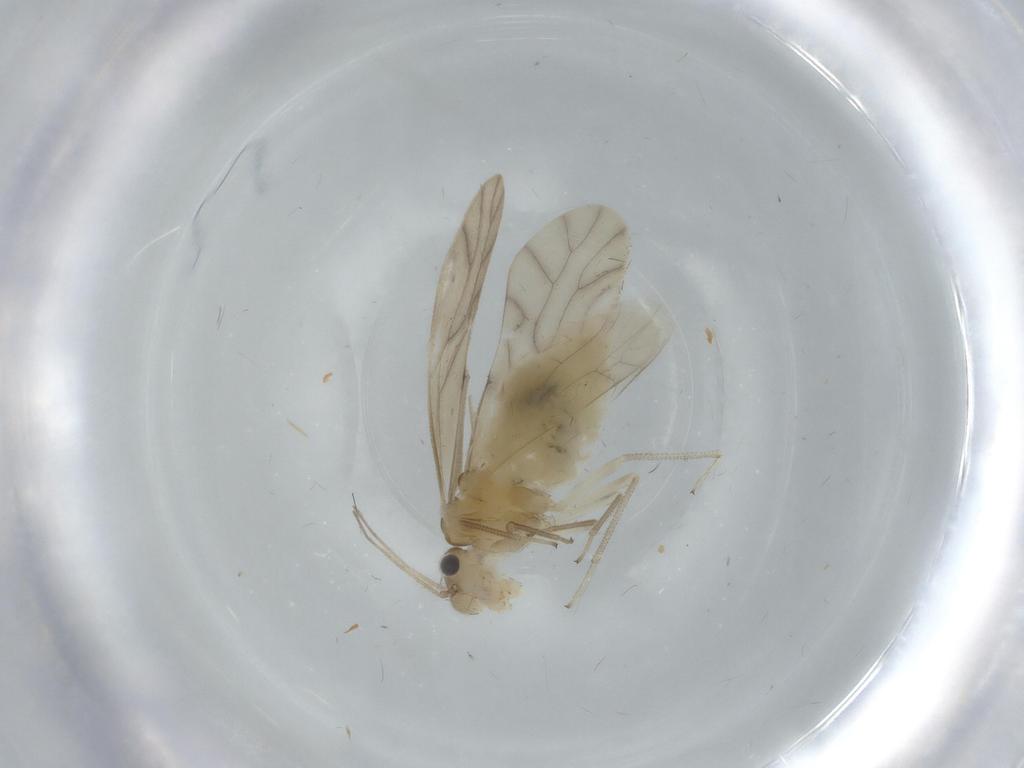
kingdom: Animalia
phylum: Arthropoda
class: Insecta
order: Psocodea
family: Caeciliusidae
